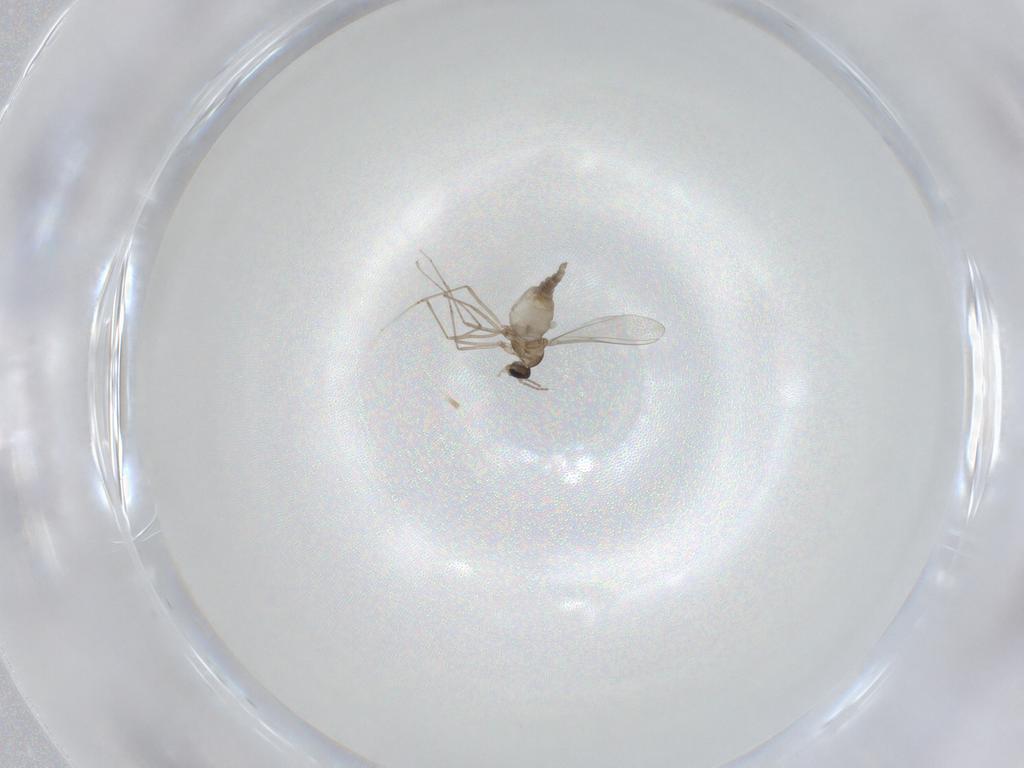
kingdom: Animalia
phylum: Arthropoda
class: Insecta
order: Diptera
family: Cecidomyiidae
